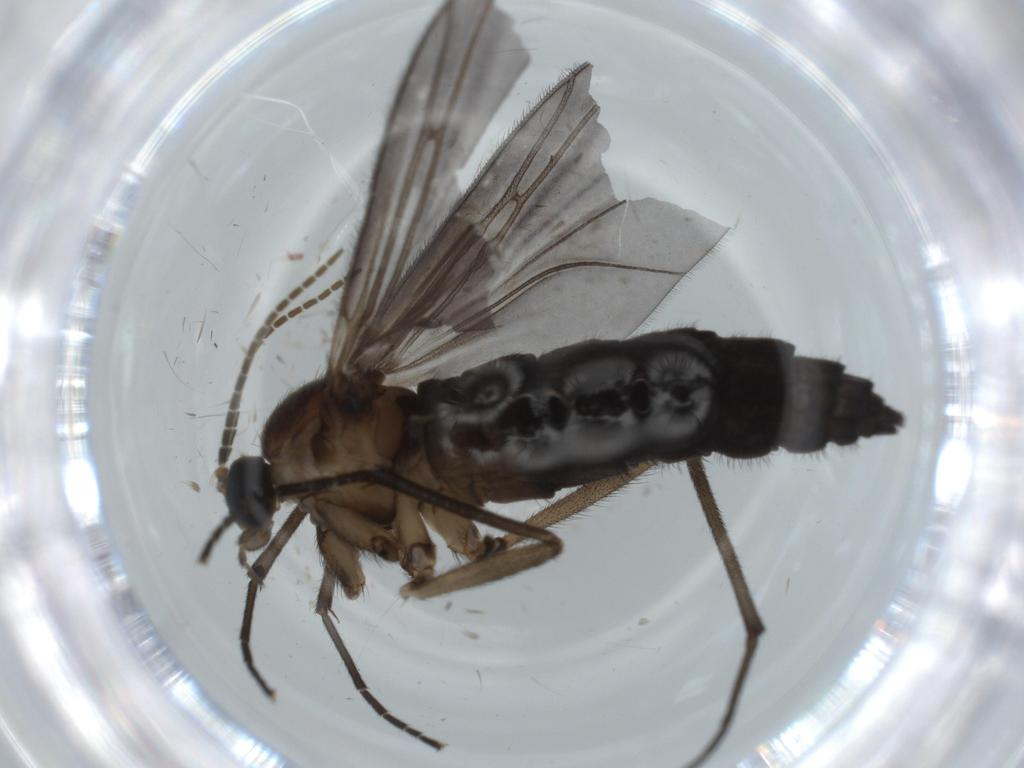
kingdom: Animalia
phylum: Arthropoda
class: Insecta
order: Diptera
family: Sciaridae
